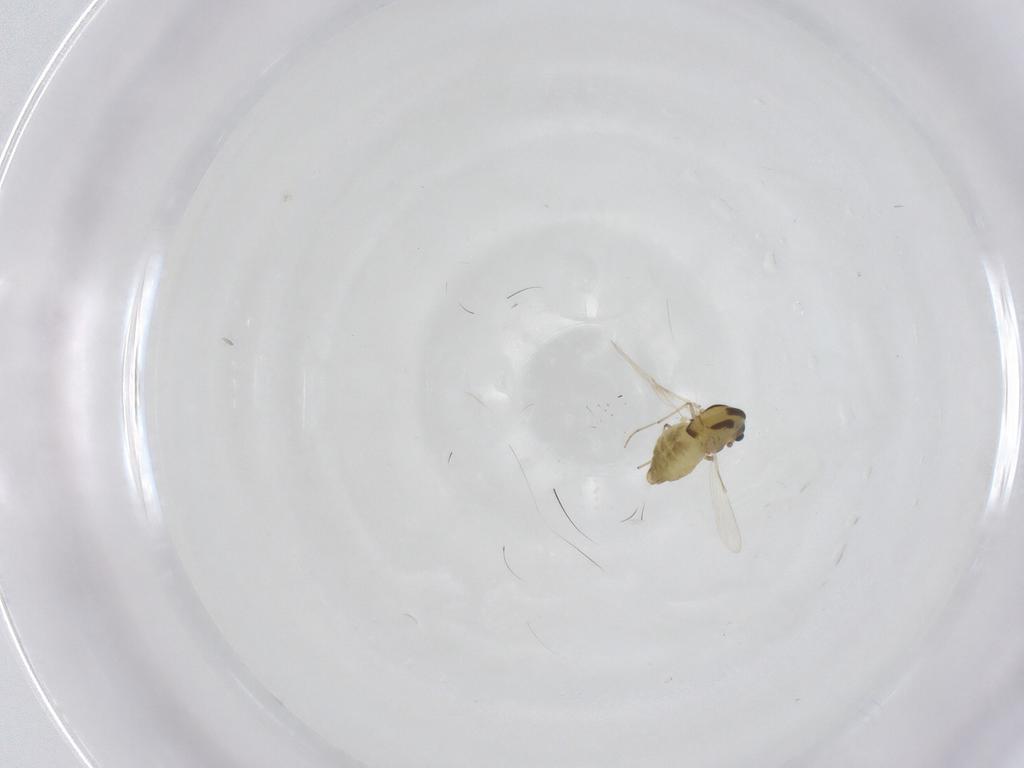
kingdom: Animalia
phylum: Arthropoda
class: Insecta
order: Diptera
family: Chironomidae
